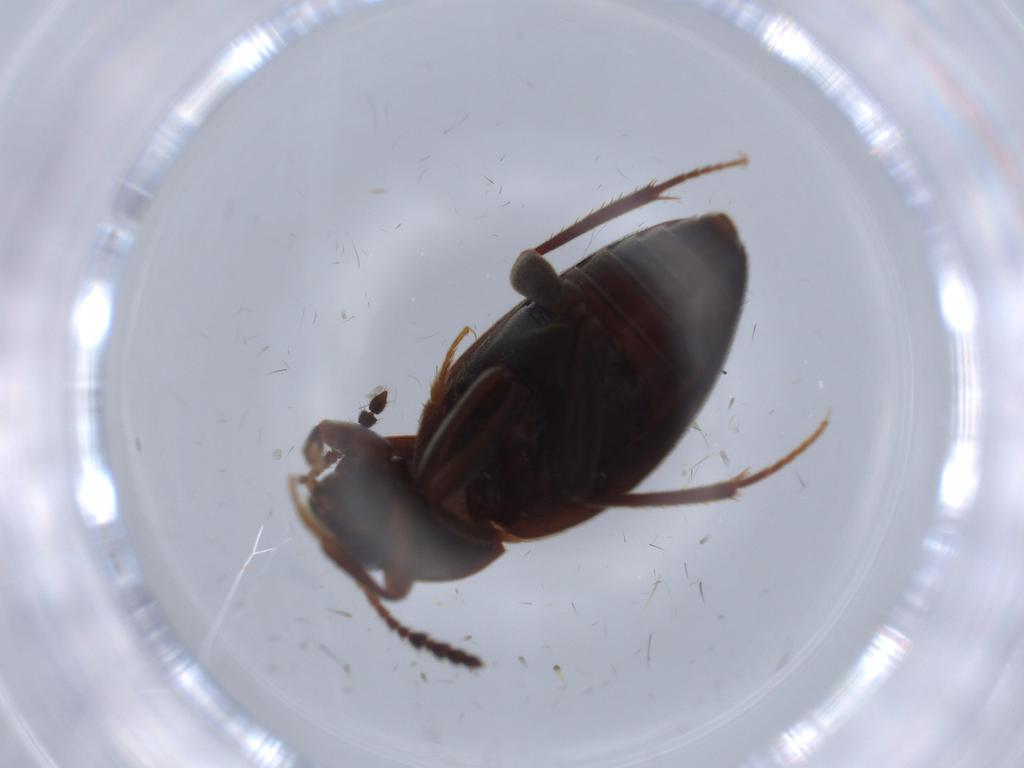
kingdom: Animalia
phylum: Arthropoda
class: Insecta
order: Coleoptera
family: Leiodidae
